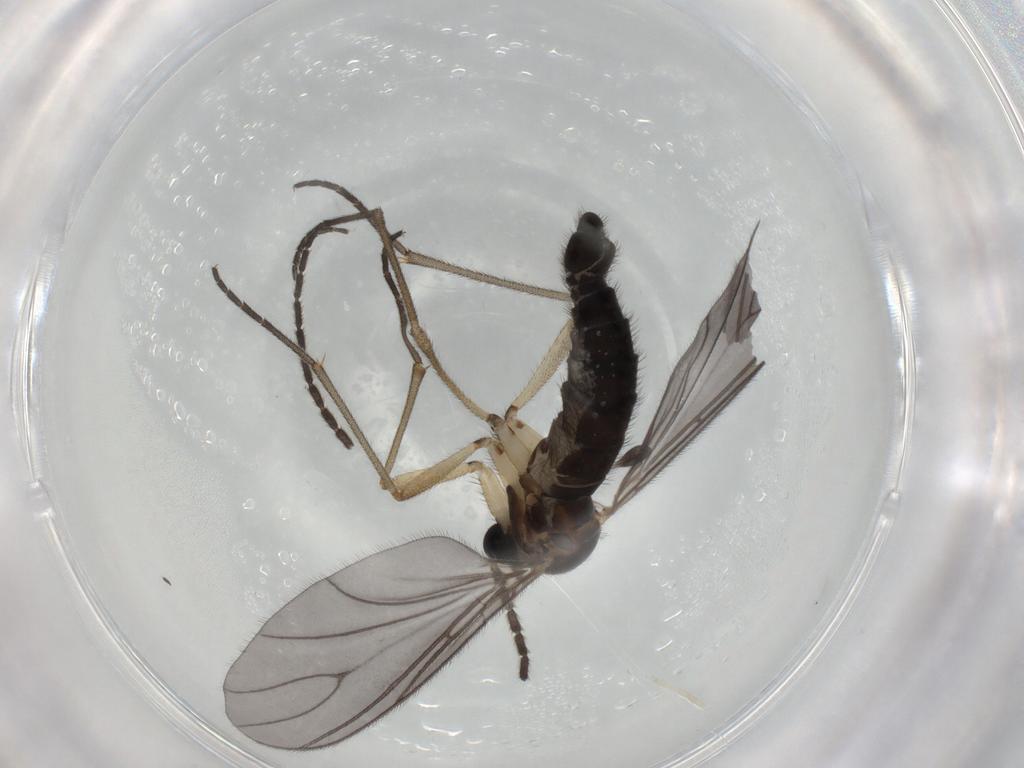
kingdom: Animalia
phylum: Arthropoda
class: Insecta
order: Diptera
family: Sciaridae
